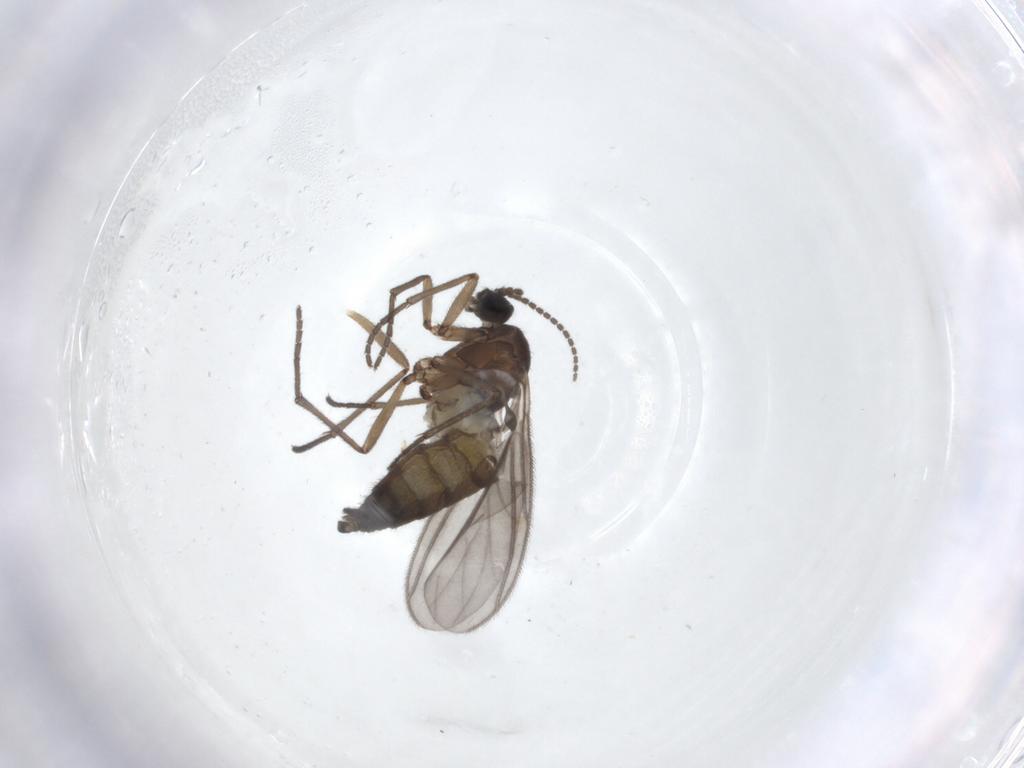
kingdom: Animalia
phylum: Arthropoda
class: Insecta
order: Diptera
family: Sciaridae
